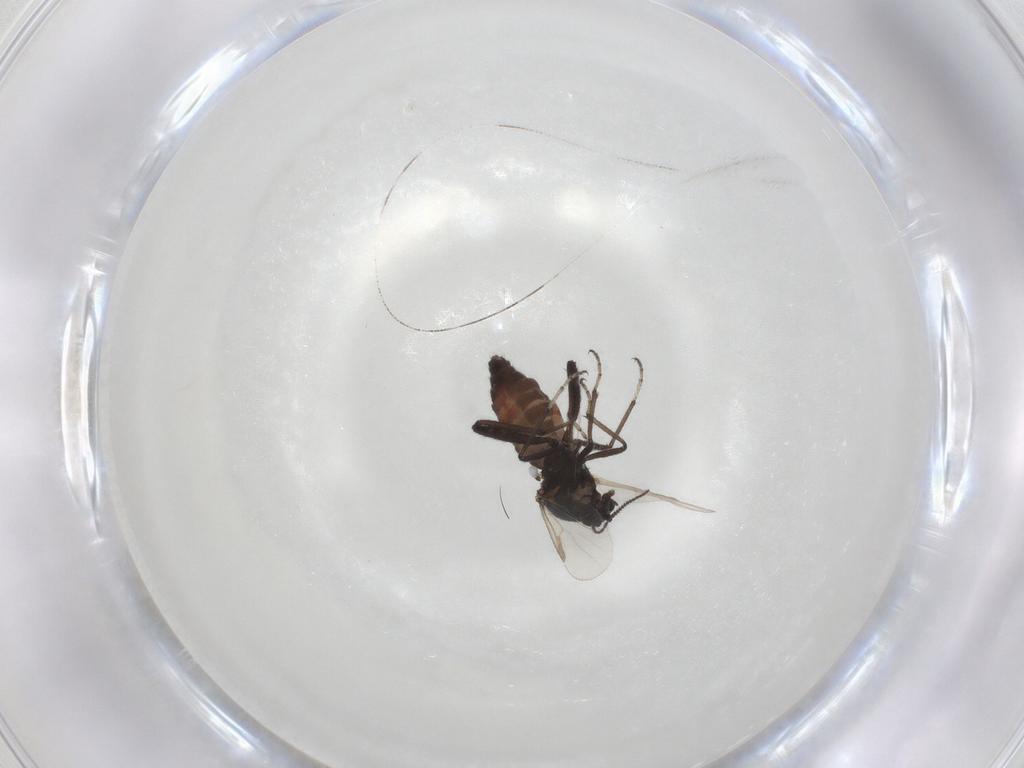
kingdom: Animalia
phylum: Arthropoda
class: Insecta
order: Diptera
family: Ceratopogonidae
